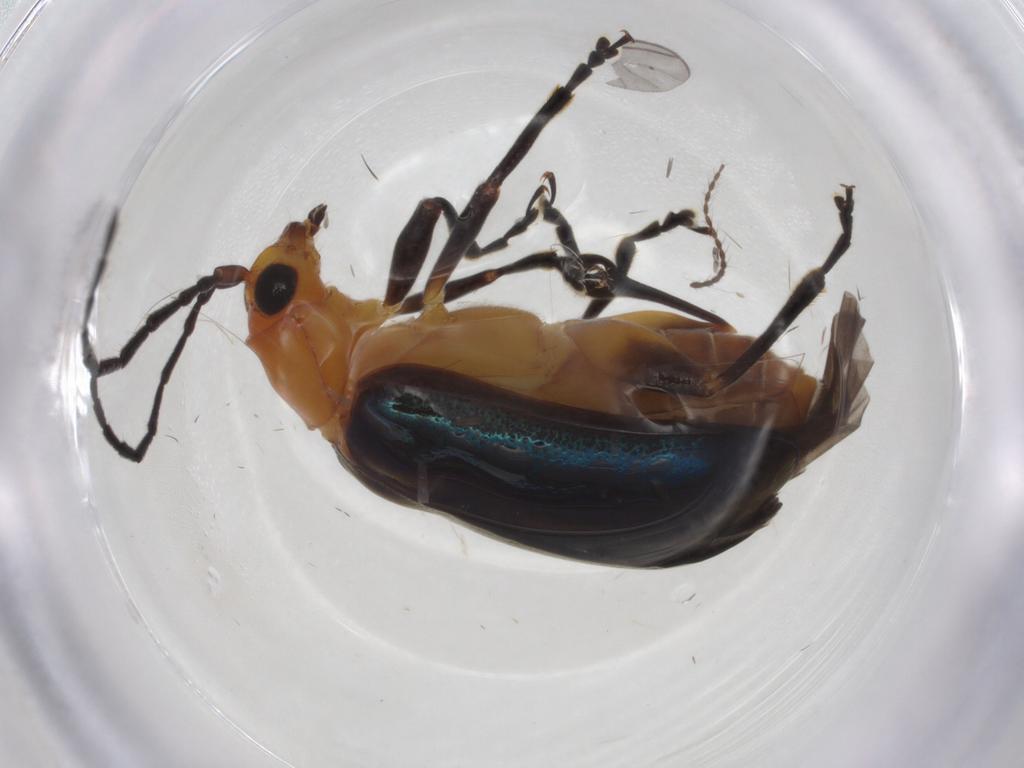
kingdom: Animalia
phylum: Arthropoda
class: Insecta
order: Coleoptera
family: Chrysomelidae
